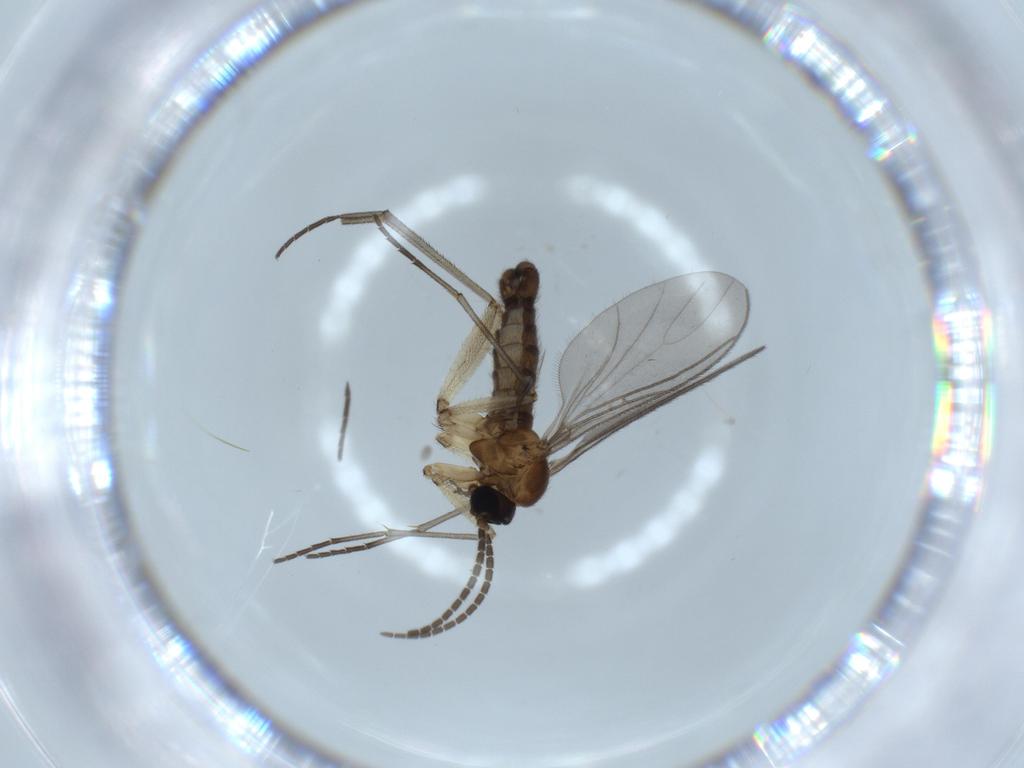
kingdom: Animalia
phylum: Arthropoda
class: Insecta
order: Diptera
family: Sciaridae
